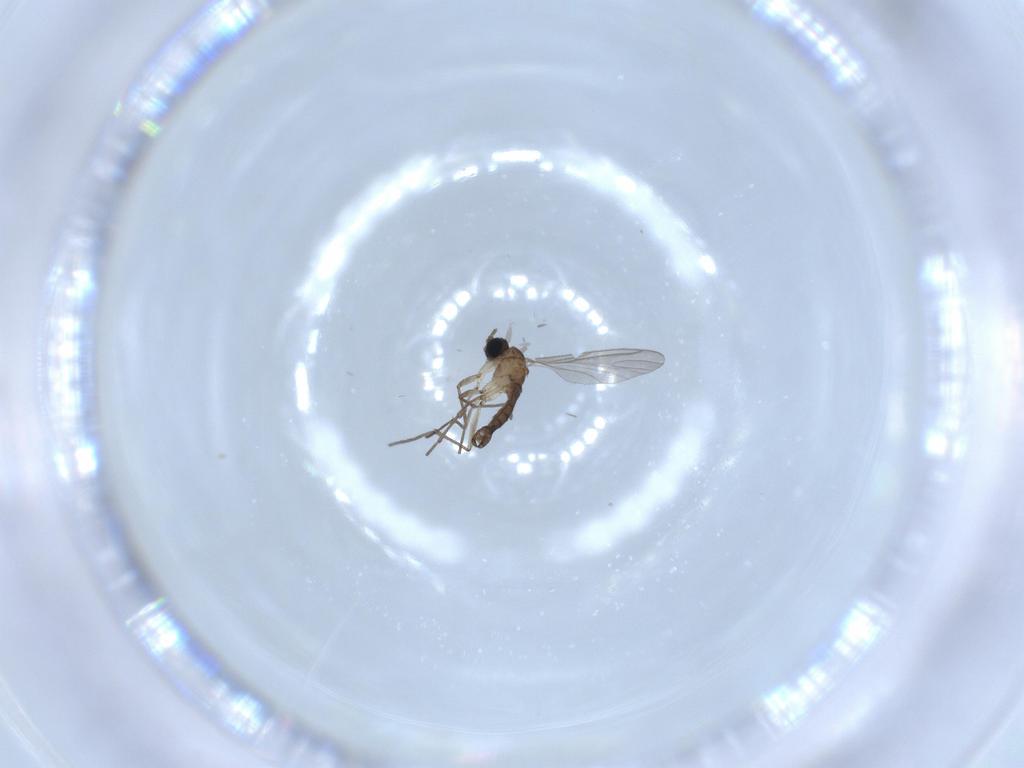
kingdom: Animalia
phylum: Arthropoda
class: Insecta
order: Diptera
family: Sciaridae
